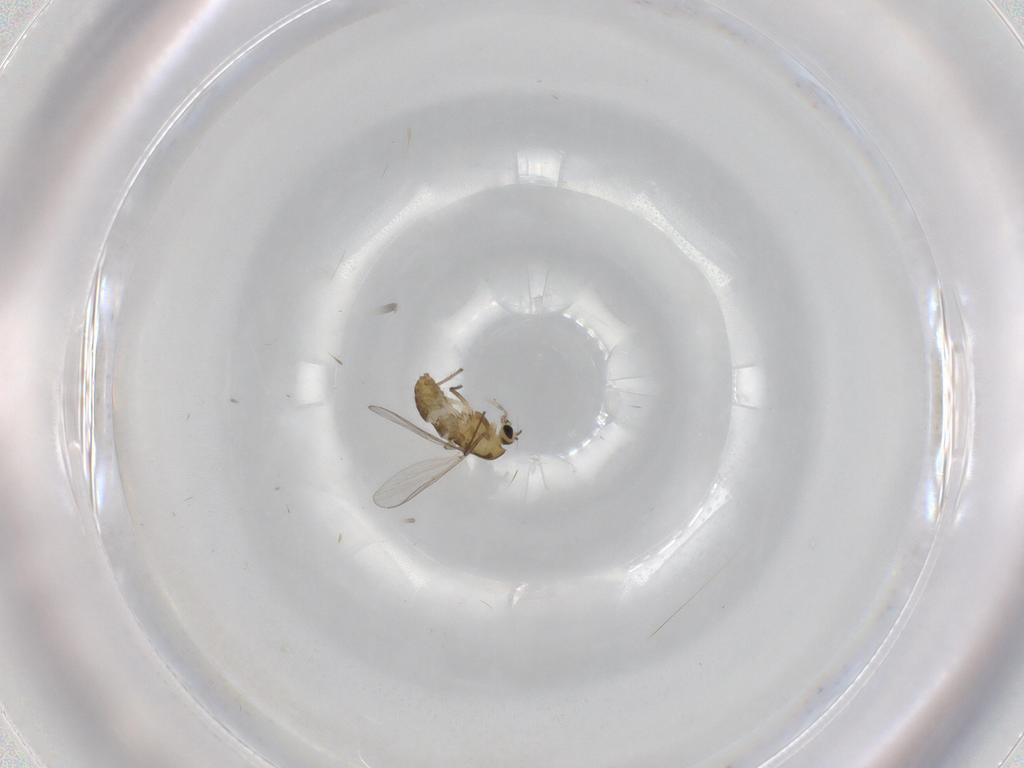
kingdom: Animalia
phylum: Arthropoda
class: Insecta
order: Diptera
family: Chironomidae
